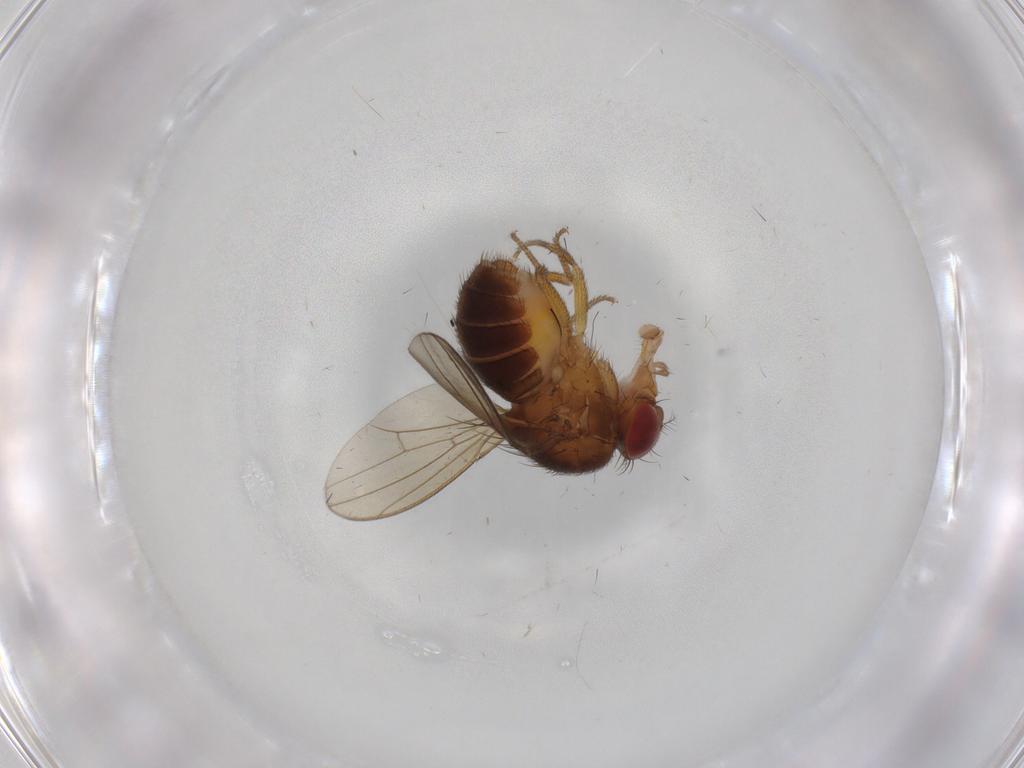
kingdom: Animalia
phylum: Arthropoda
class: Insecta
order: Diptera
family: Drosophilidae
